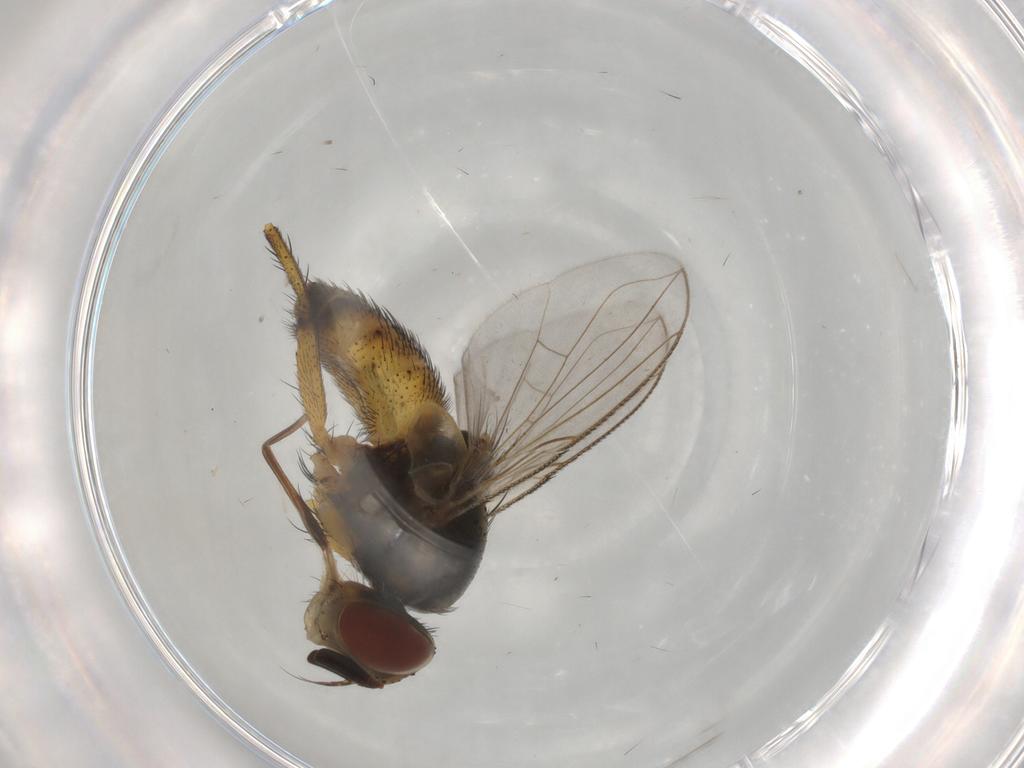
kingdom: Animalia
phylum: Arthropoda
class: Insecta
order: Diptera
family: Tachinidae
